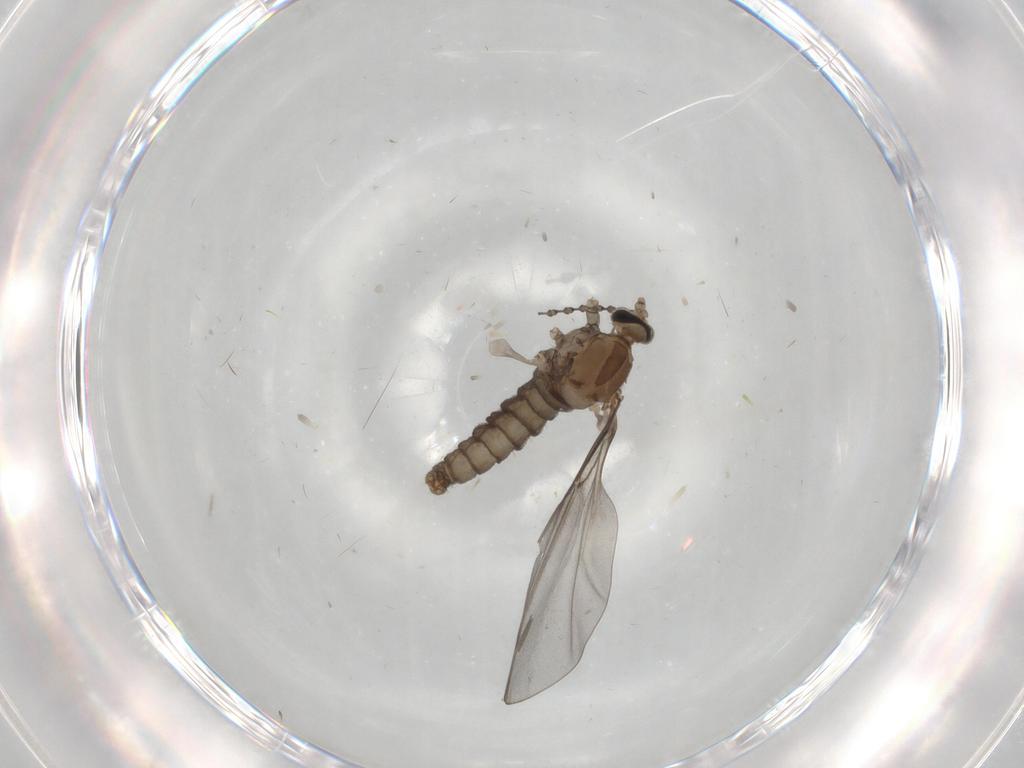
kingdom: Animalia
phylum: Arthropoda
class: Insecta
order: Diptera
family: Cecidomyiidae
